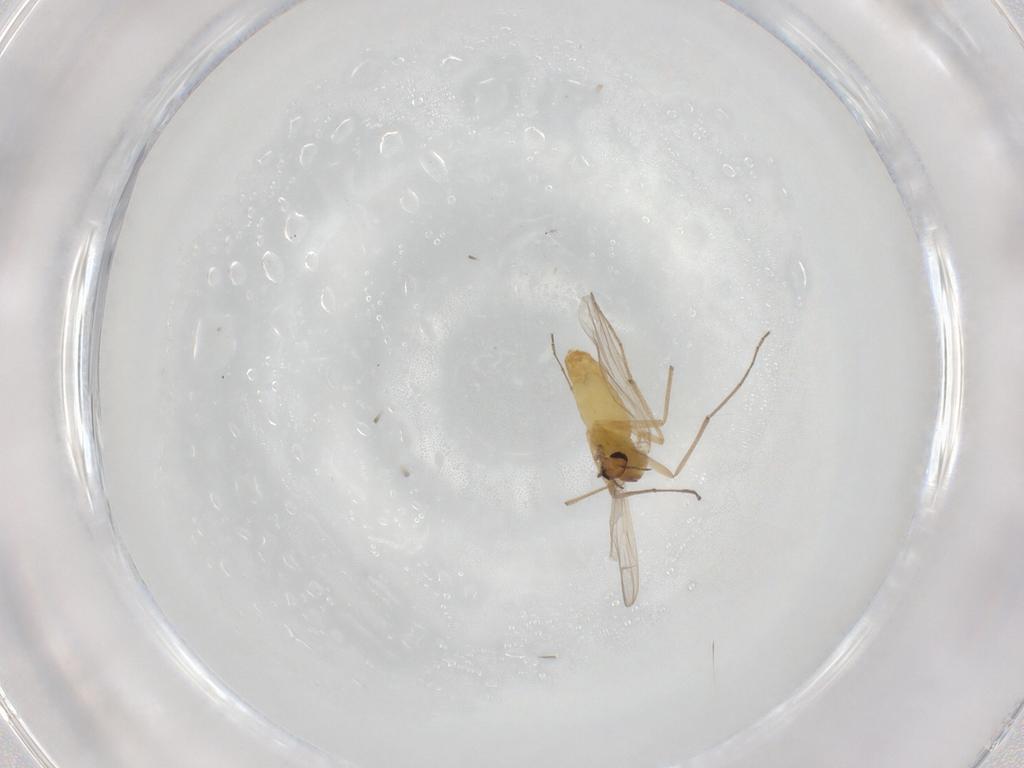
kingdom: Animalia
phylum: Arthropoda
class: Insecta
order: Diptera
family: Chironomidae
